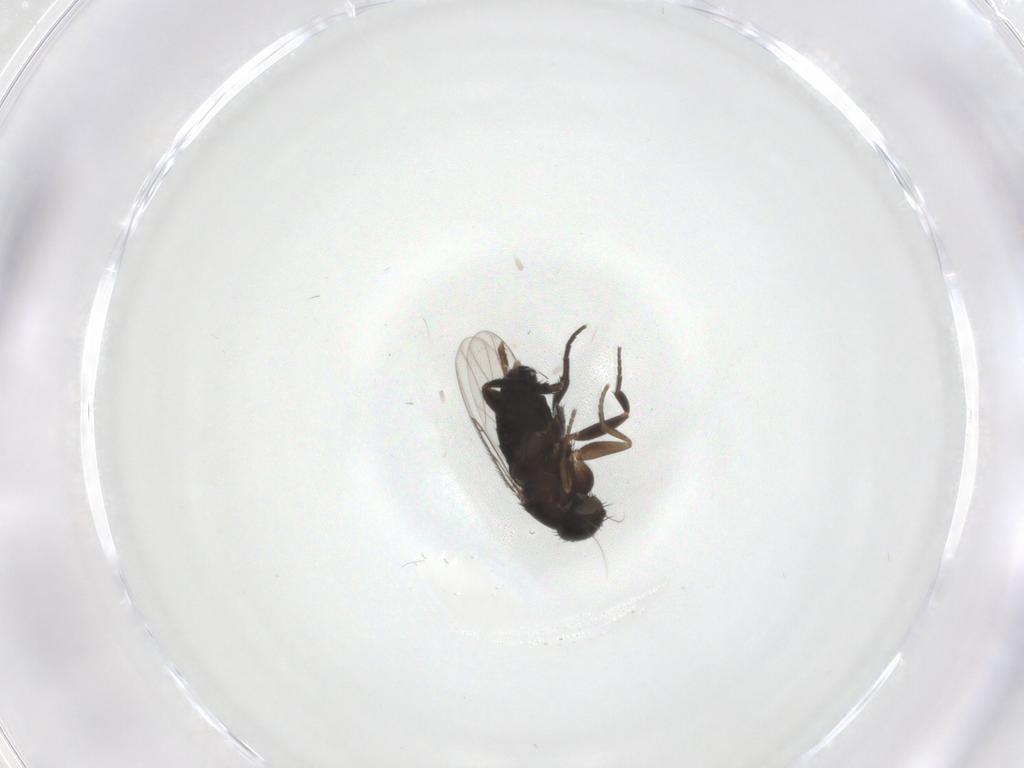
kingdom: Animalia
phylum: Arthropoda
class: Insecta
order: Diptera
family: Phoridae
